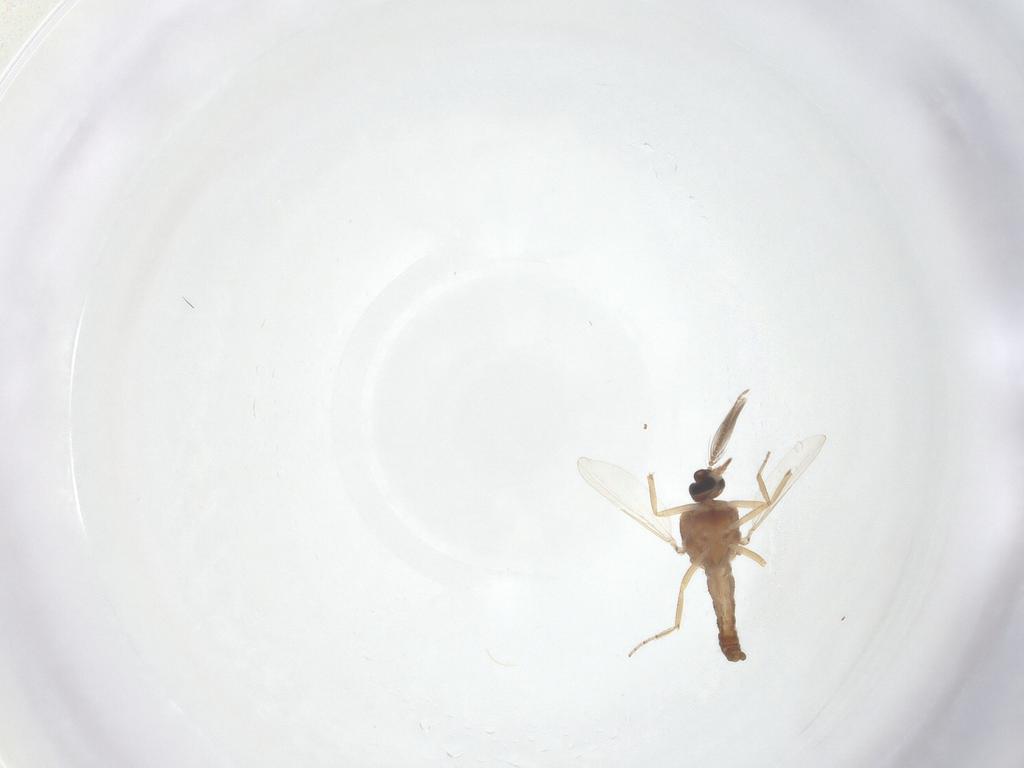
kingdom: Animalia
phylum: Arthropoda
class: Insecta
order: Diptera
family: Ceratopogonidae
